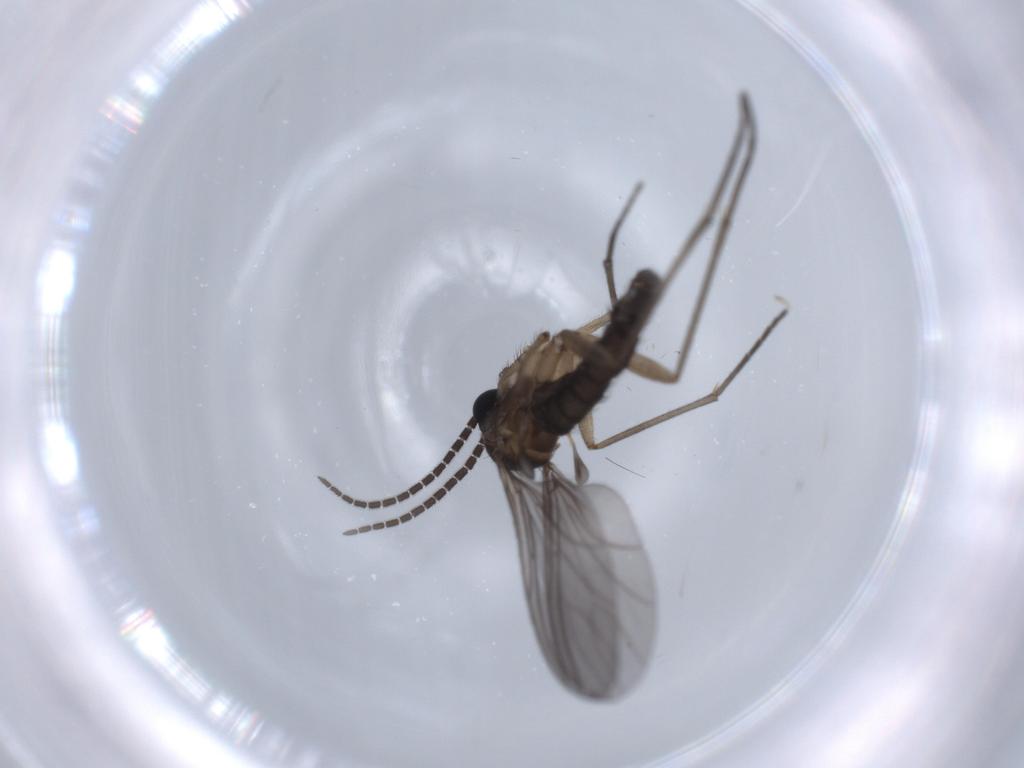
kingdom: Animalia
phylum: Arthropoda
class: Insecta
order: Diptera
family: Sciaridae
